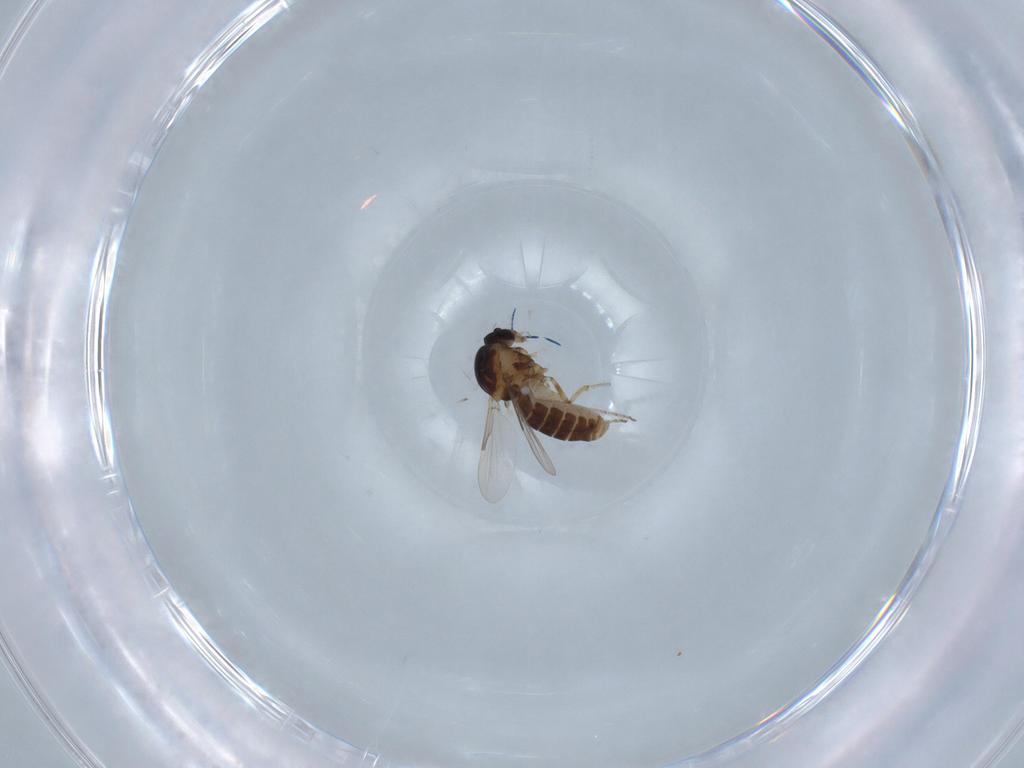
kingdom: Animalia
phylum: Arthropoda
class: Insecta
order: Diptera
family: Ceratopogonidae
